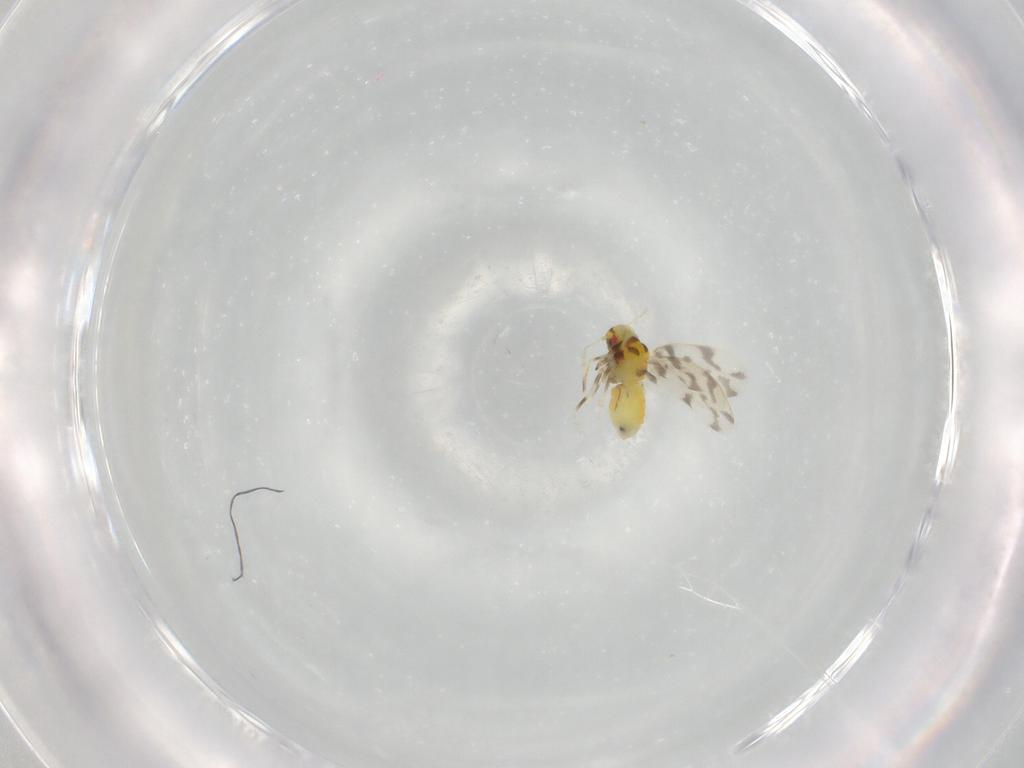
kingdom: Animalia
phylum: Arthropoda
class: Insecta
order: Hemiptera
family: Aleyrodidae
